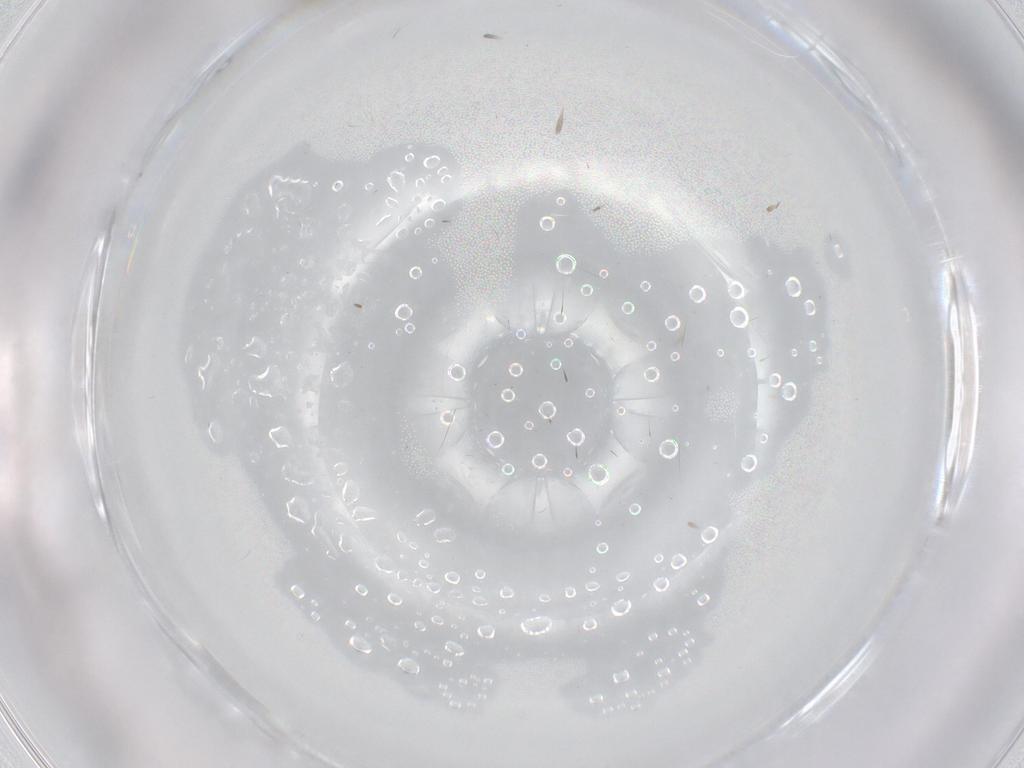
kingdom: Animalia
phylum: Arthropoda
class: Insecta
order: Diptera
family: Cecidomyiidae
